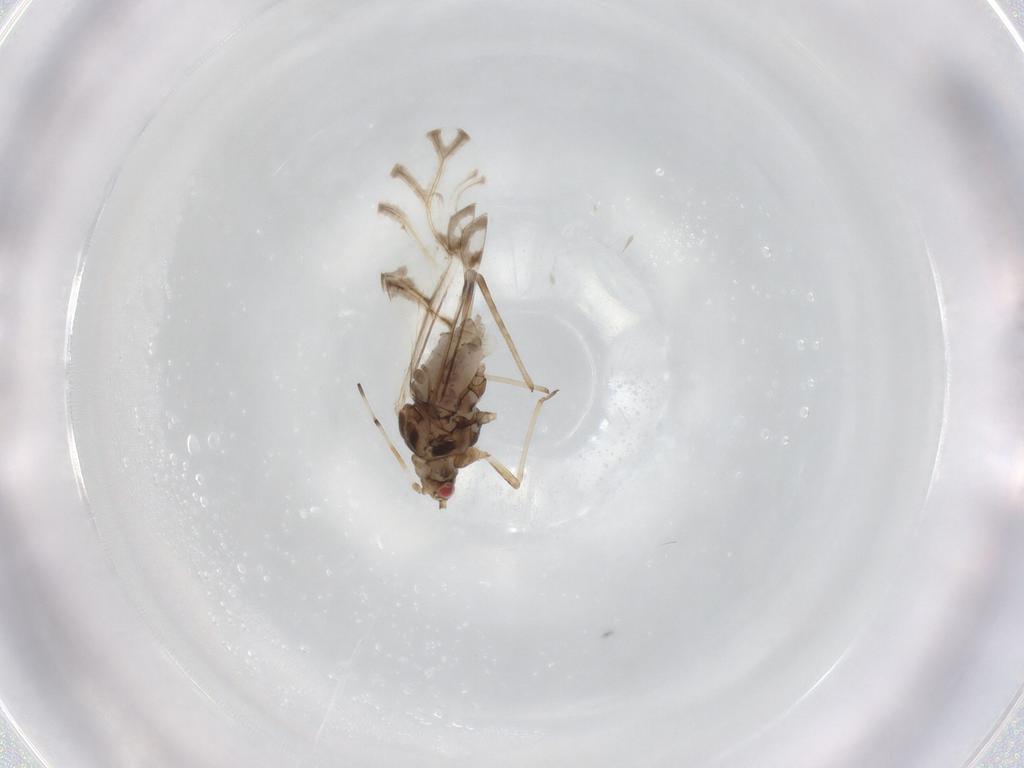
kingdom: Animalia
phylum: Arthropoda
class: Insecta
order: Hemiptera
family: Aphididae
